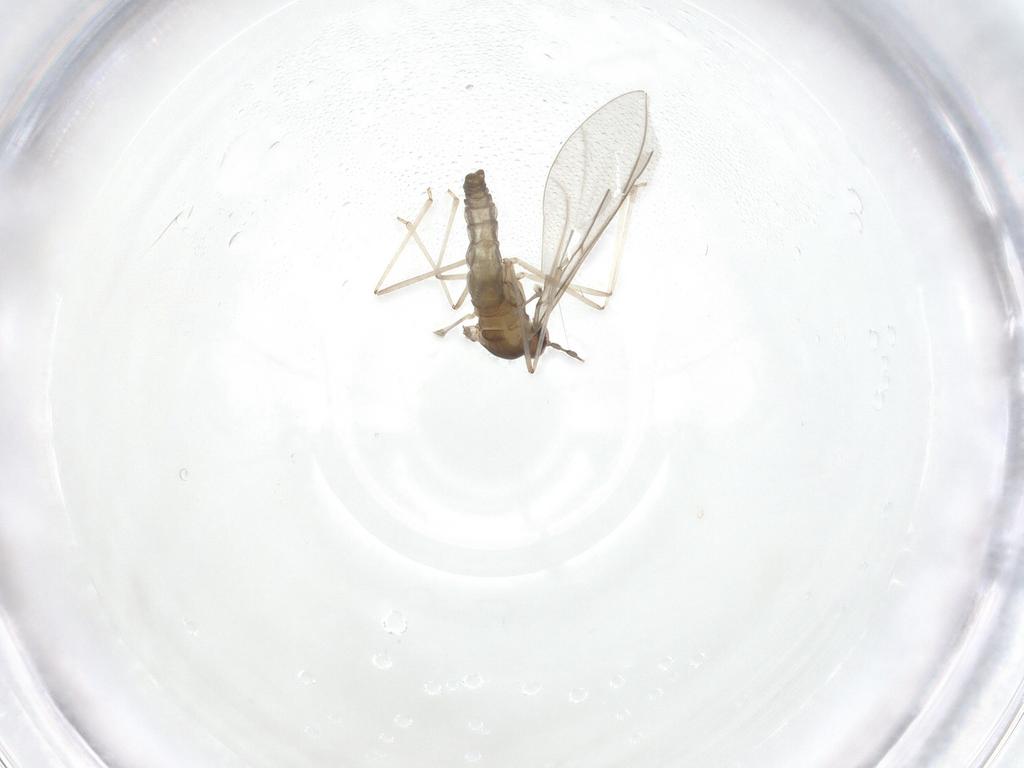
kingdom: Animalia
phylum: Arthropoda
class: Insecta
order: Diptera
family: Cecidomyiidae
